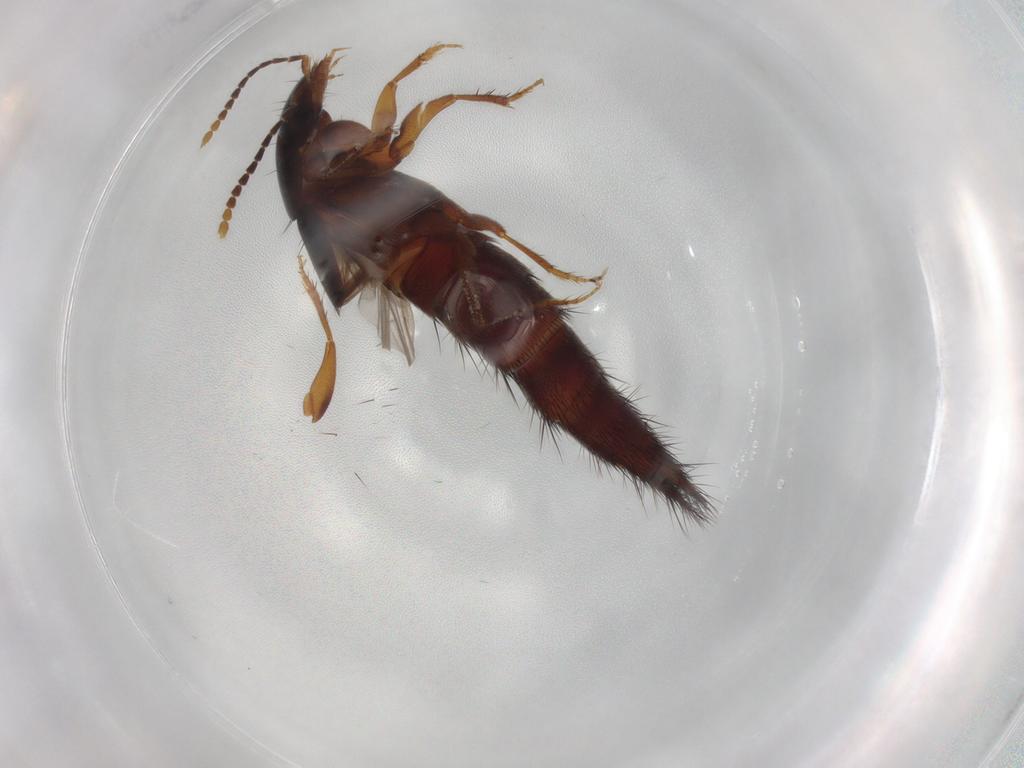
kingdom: Animalia
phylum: Arthropoda
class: Insecta
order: Coleoptera
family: Staphylinidae
